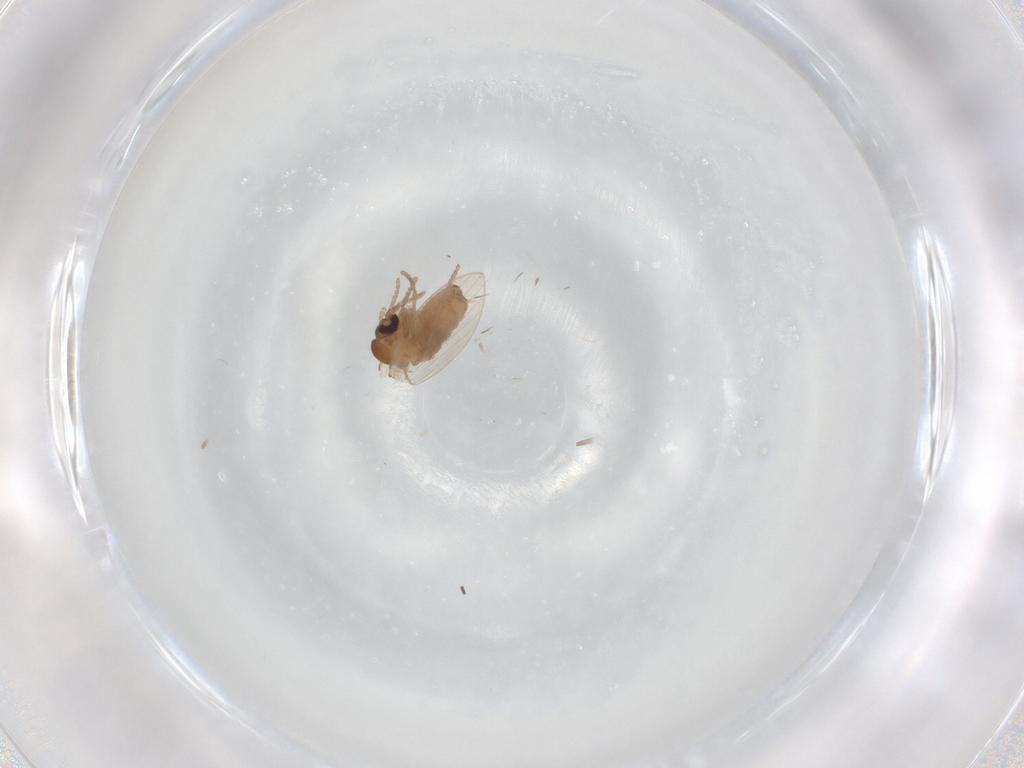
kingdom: Animalia
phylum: Arthropoda
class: Insecta
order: Diptera
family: Psychodidae
